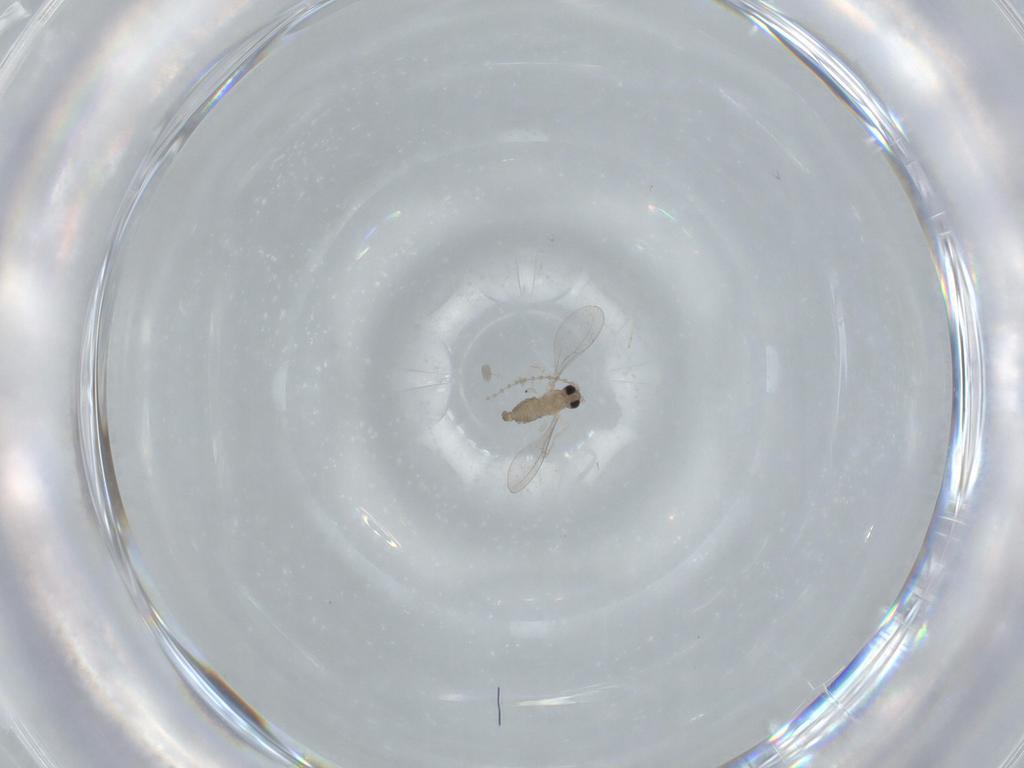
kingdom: Animalia
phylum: Arthropoda
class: Insecta
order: Diptera
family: Cecidomyiidae
